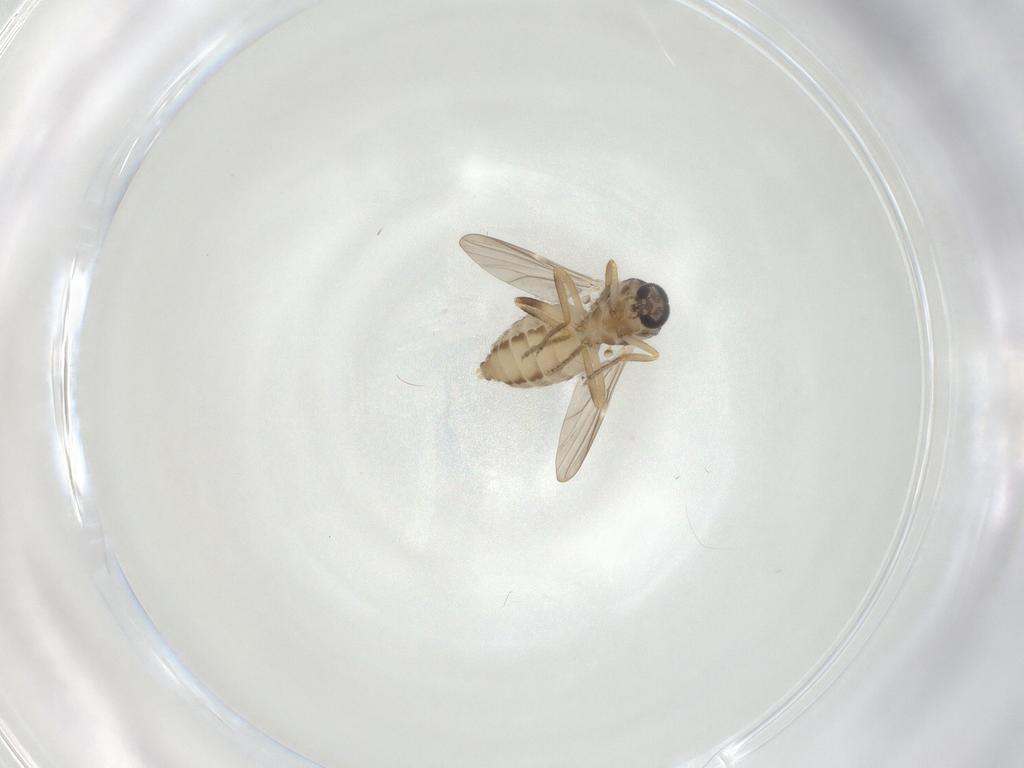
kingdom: Animalia
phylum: Arthropoda
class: Insecta
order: Diptera
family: Ceratopogonidae
